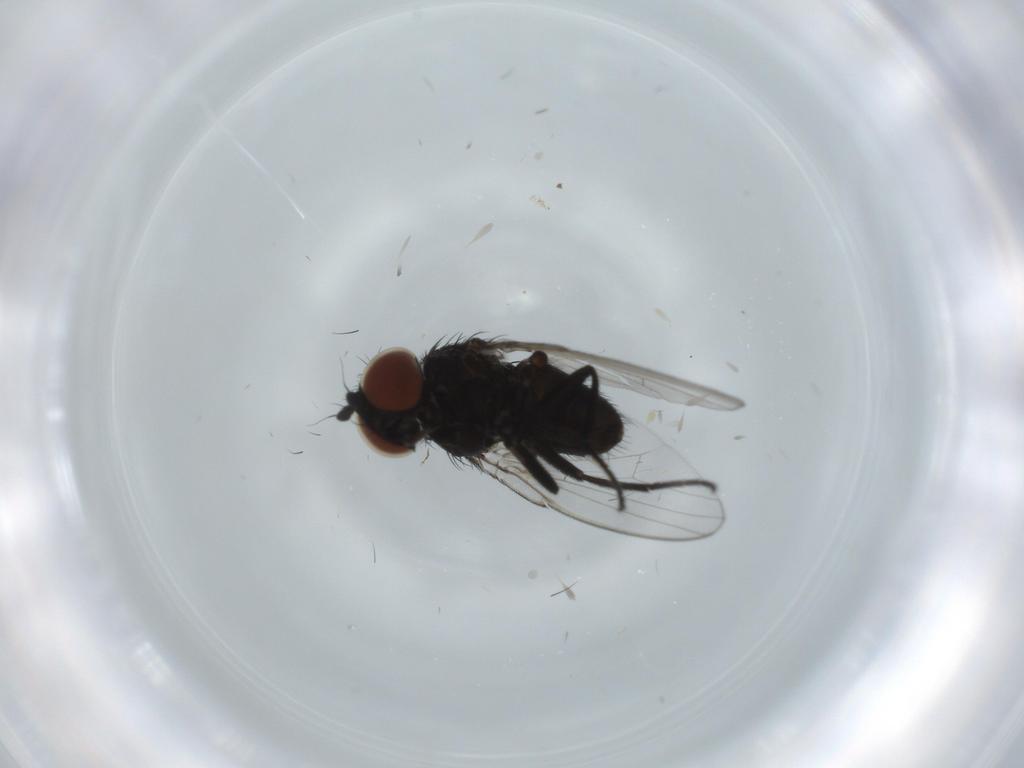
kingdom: Animalia
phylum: Arthropoda
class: Insecta
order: Diptera
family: Milichiidae
